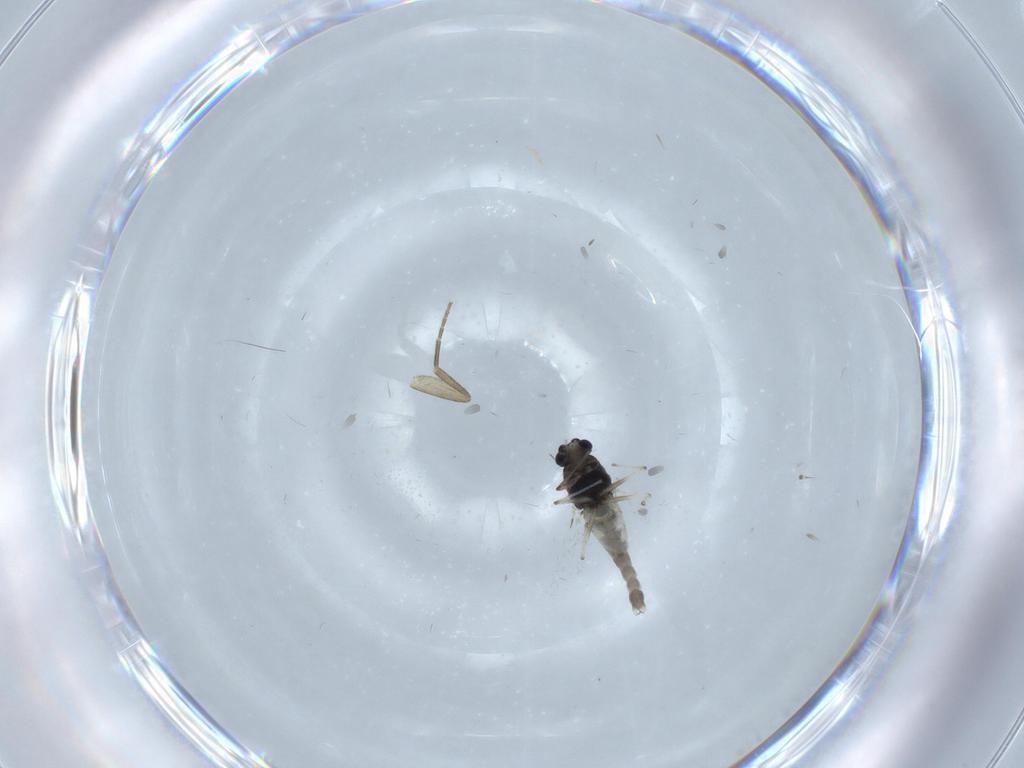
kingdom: Animalia
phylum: Arthropoda
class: Insecta
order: Diptera
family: Chironomidae
